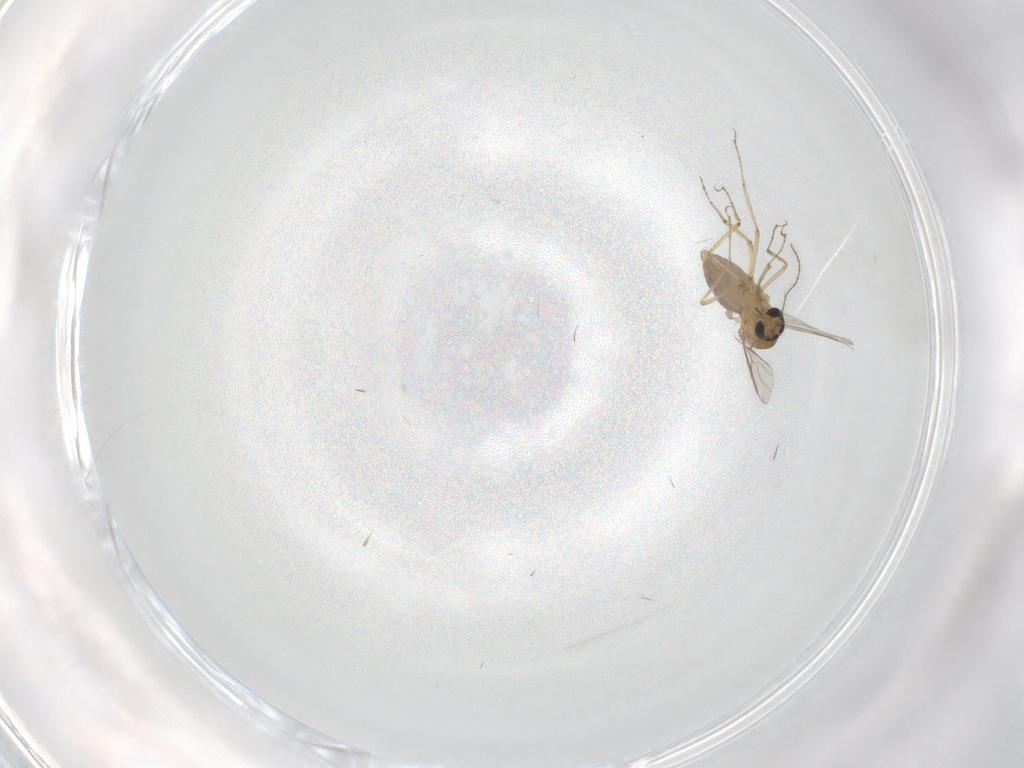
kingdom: Animalia
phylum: Arthropoda
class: Insecta
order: Diptera
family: Ceratopogonidae
